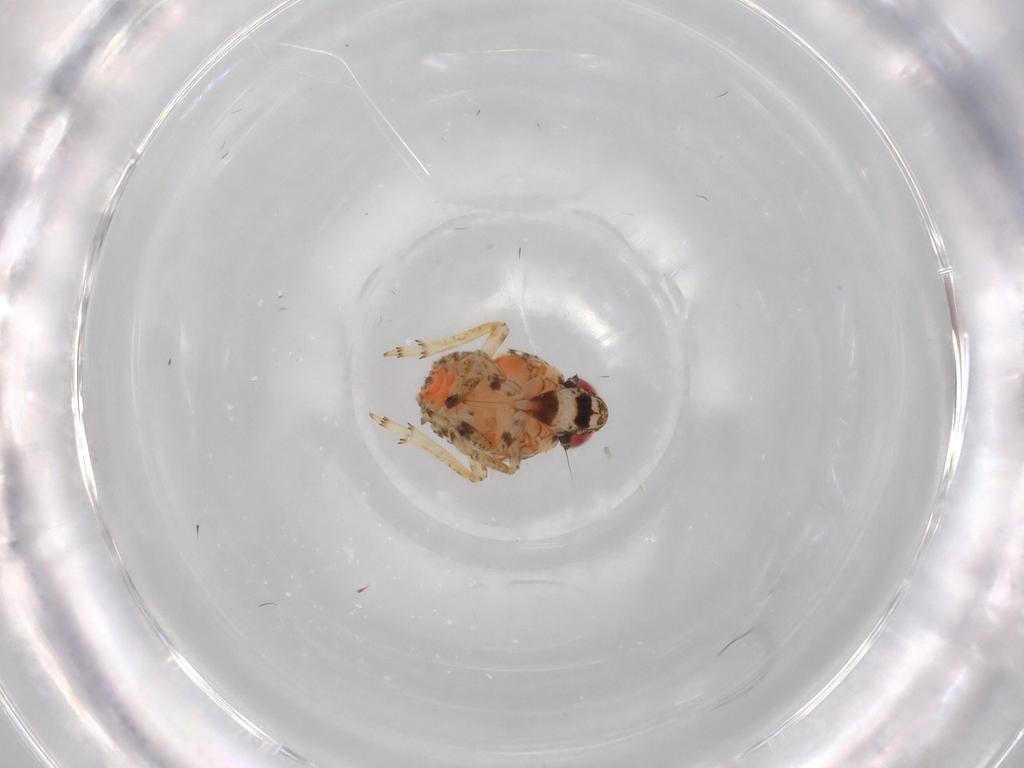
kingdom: Animalia
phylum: Arthropoda
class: Insecta
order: Hemiptera
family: Issidae
